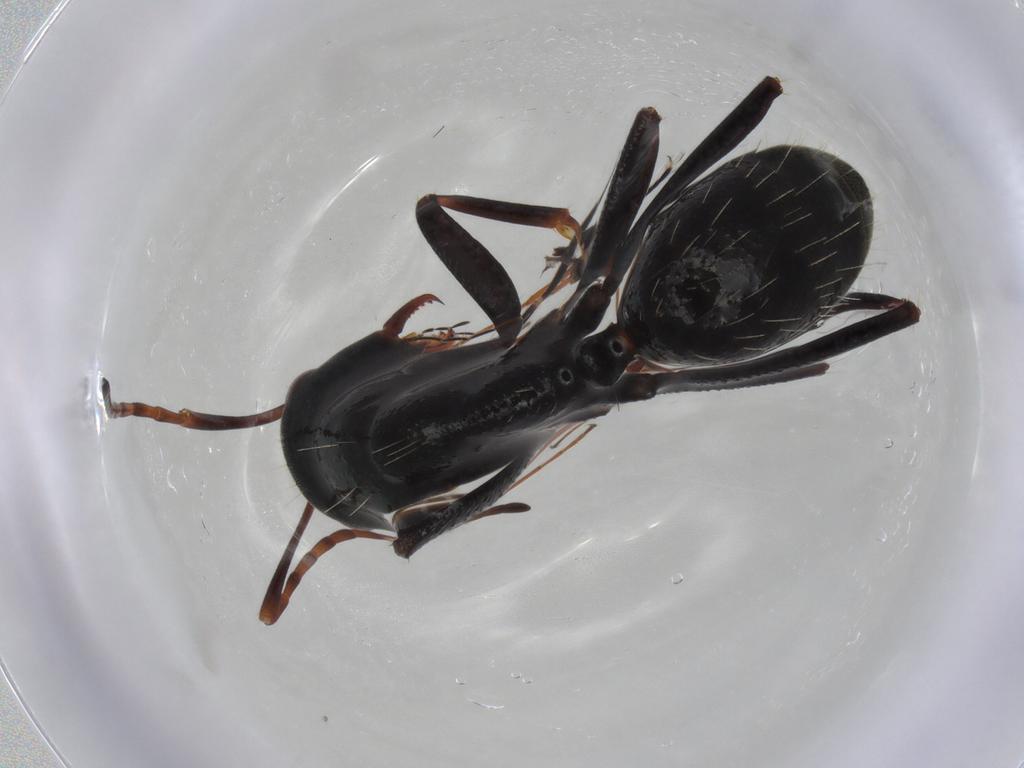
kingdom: Animalia
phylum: Arthropoda
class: Insecta
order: Hymenoptera
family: Formicidae
